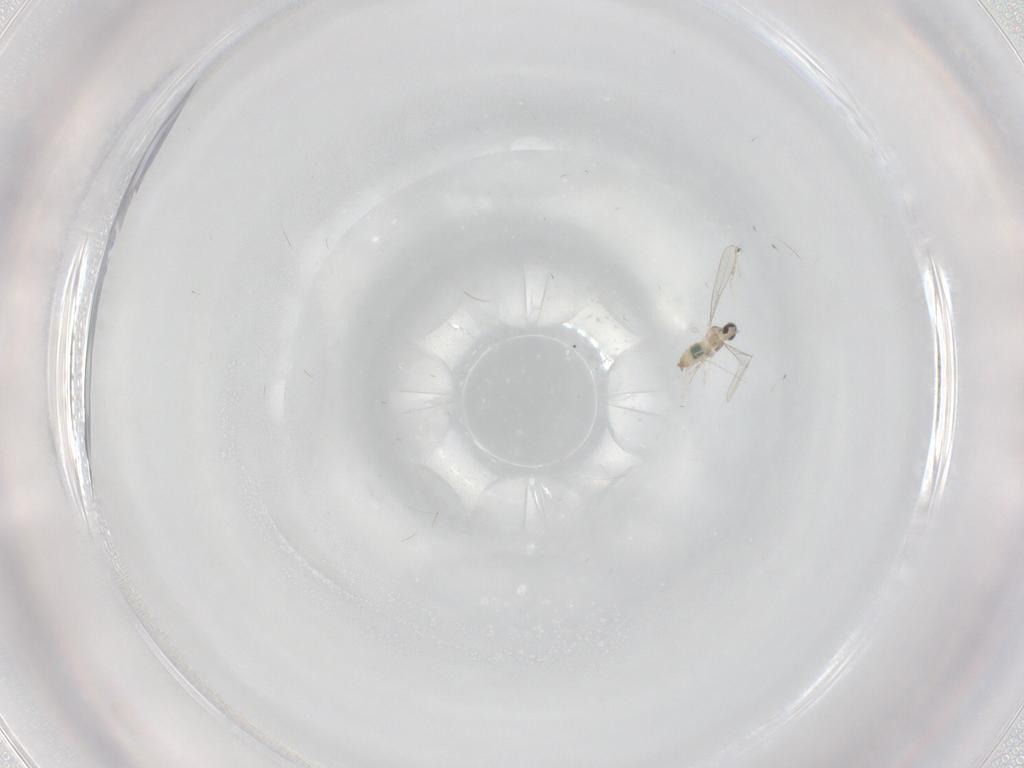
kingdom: Animalia
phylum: Arthropoda
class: Insecta
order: Diptera
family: Cecidomyiidae
